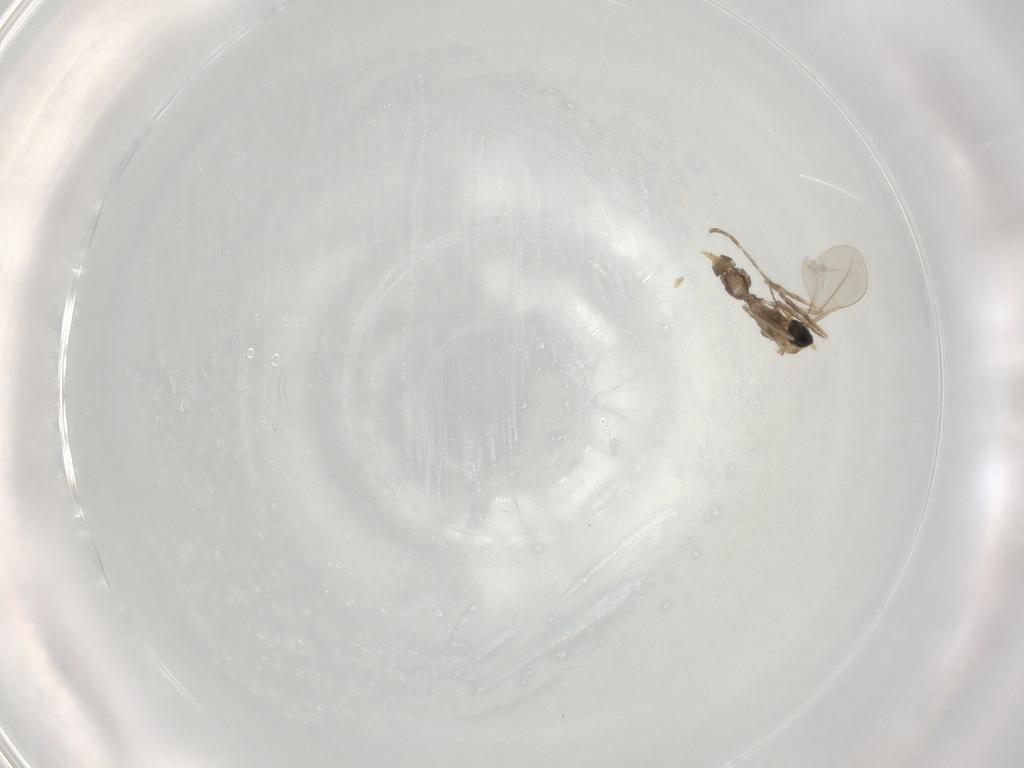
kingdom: Animalia
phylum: Arthropoda
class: Insecta
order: Diptera
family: Cecidomyiidae
